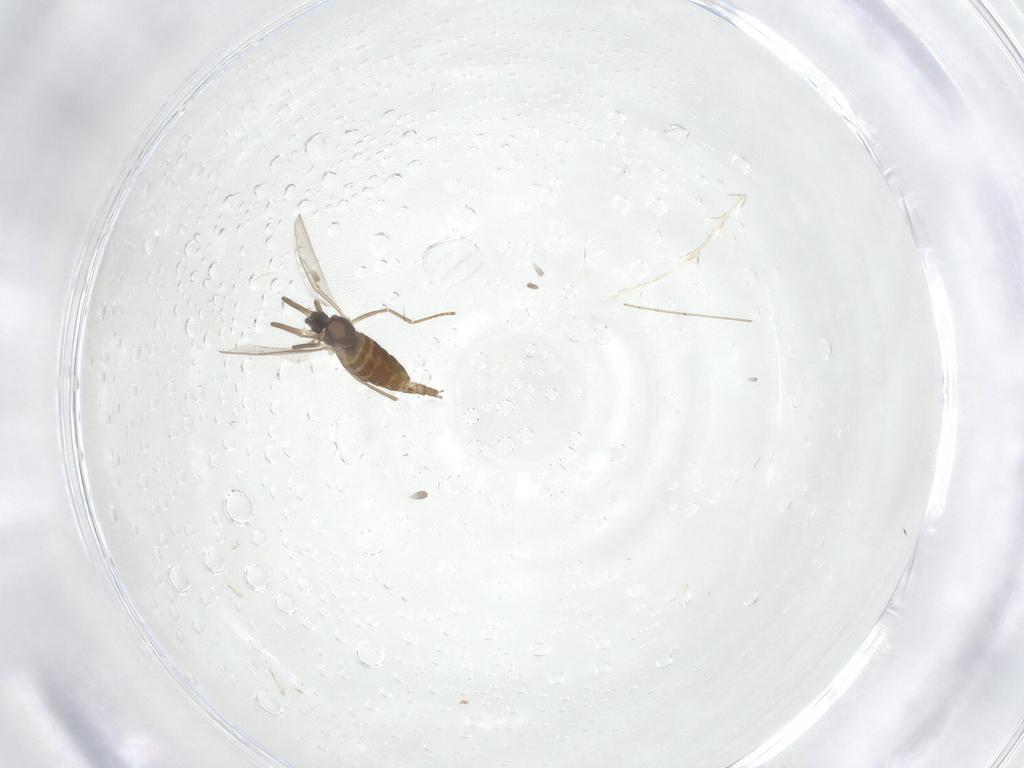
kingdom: Animalia
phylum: Arthropoda
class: Insecta
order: Diptera
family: Cecidomyiidae
